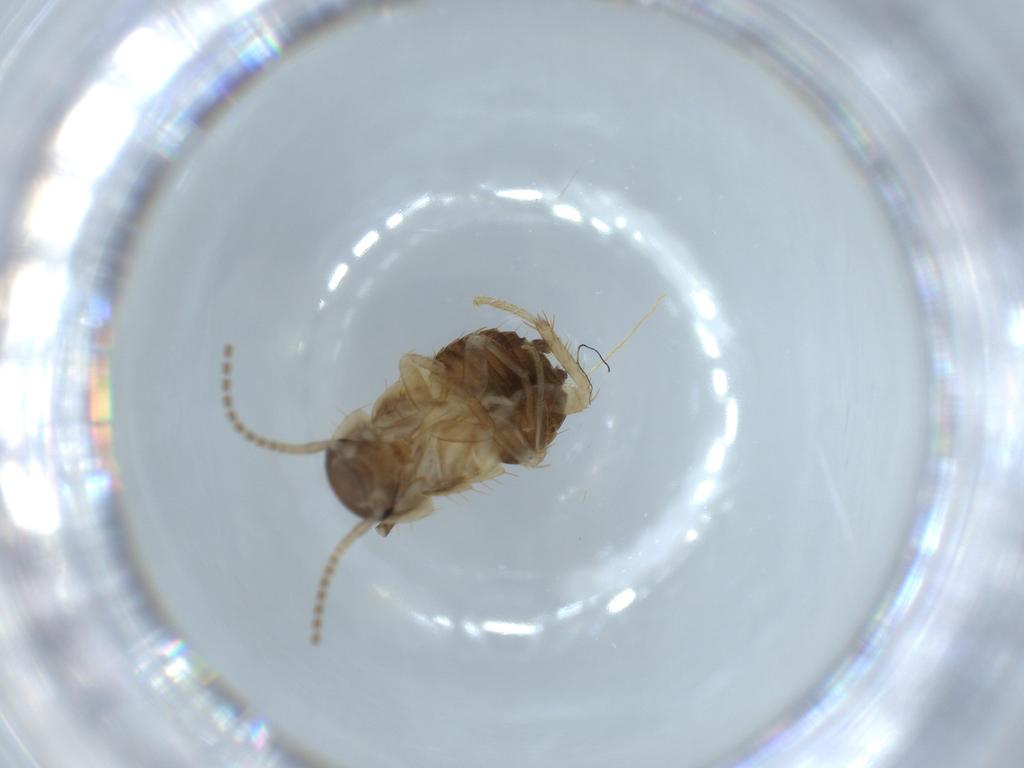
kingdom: Animalia
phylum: Arthropoda
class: Insecta
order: Blattodea
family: Ectobiidae
